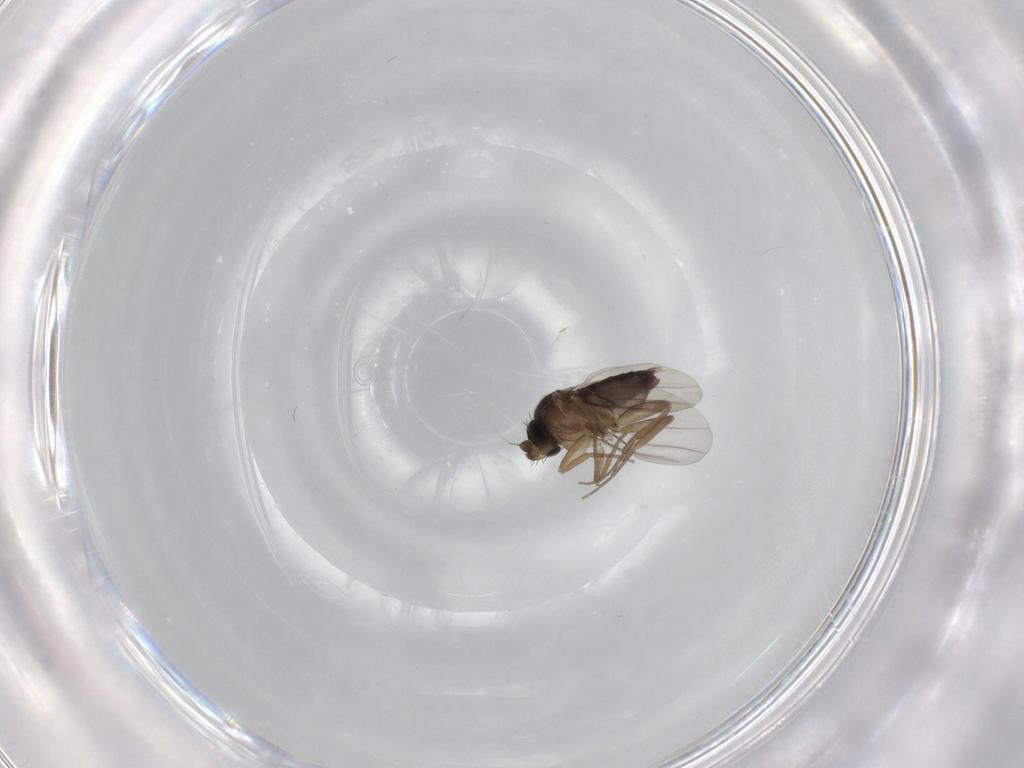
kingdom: Animalia
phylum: Arthropoda
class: Insecta
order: Diptera
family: Phoridae
